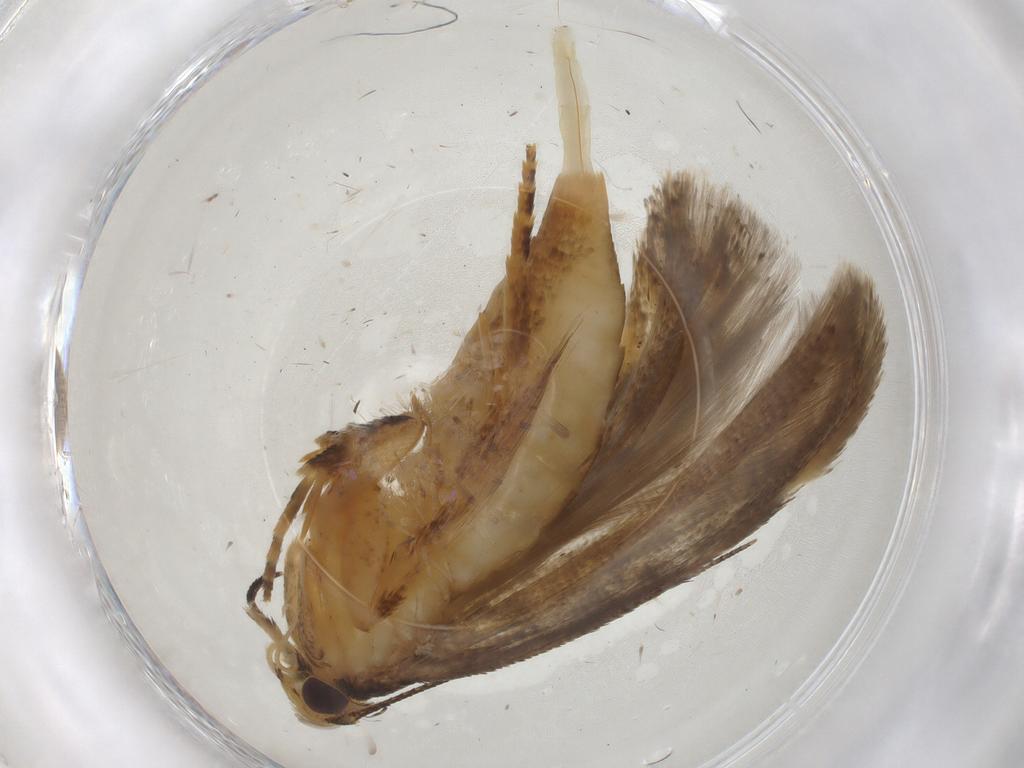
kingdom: Animalia
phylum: Arthropoda
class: Insecta
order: Lepidoptera
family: Gelechiidae
